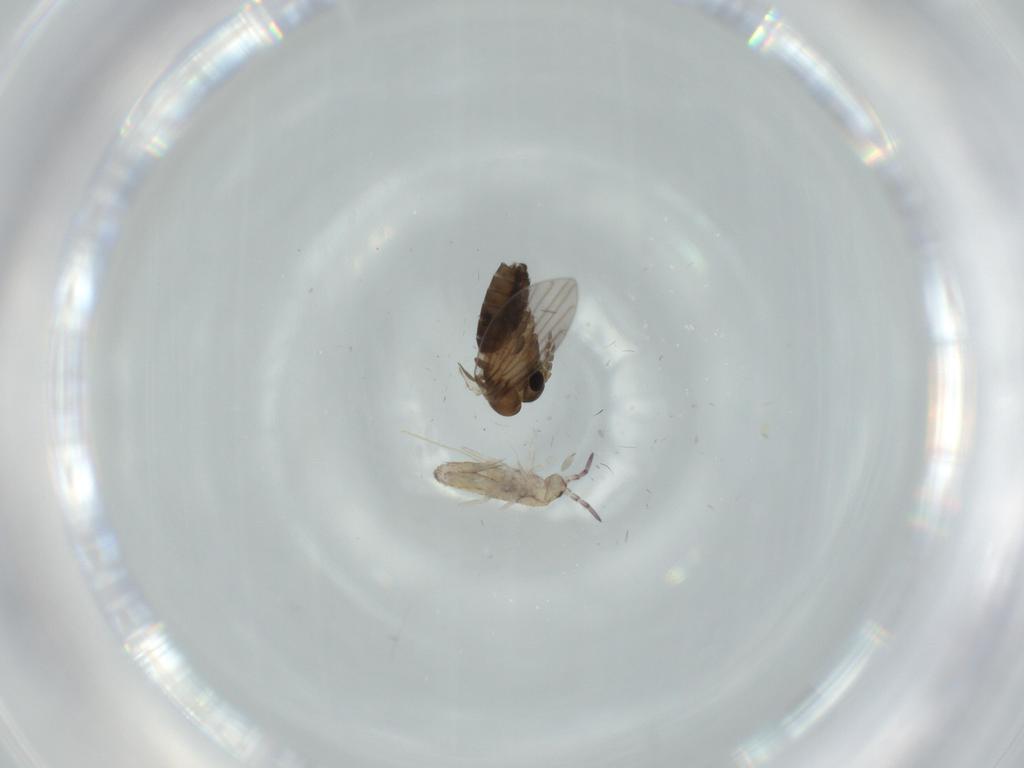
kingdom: Animalia
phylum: Arthropoda
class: Insecta
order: Diptera
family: Psychodidae
